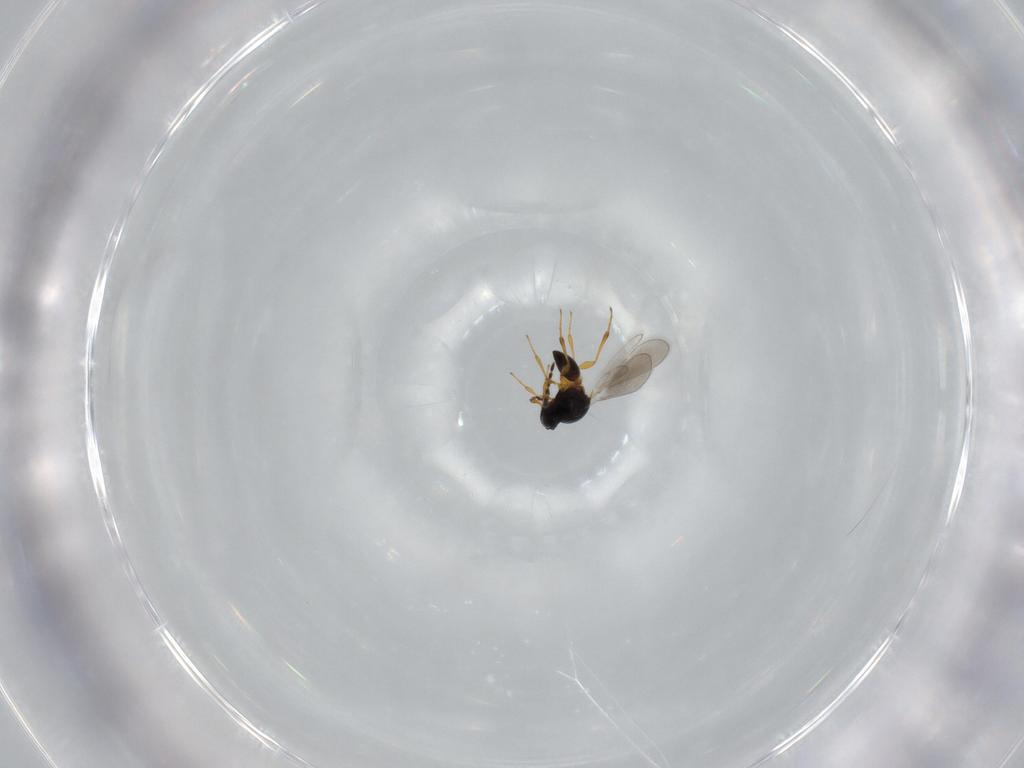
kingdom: Animalia
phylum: Arthropoda
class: Insecta
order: Hymenoptera
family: Platygastridae
